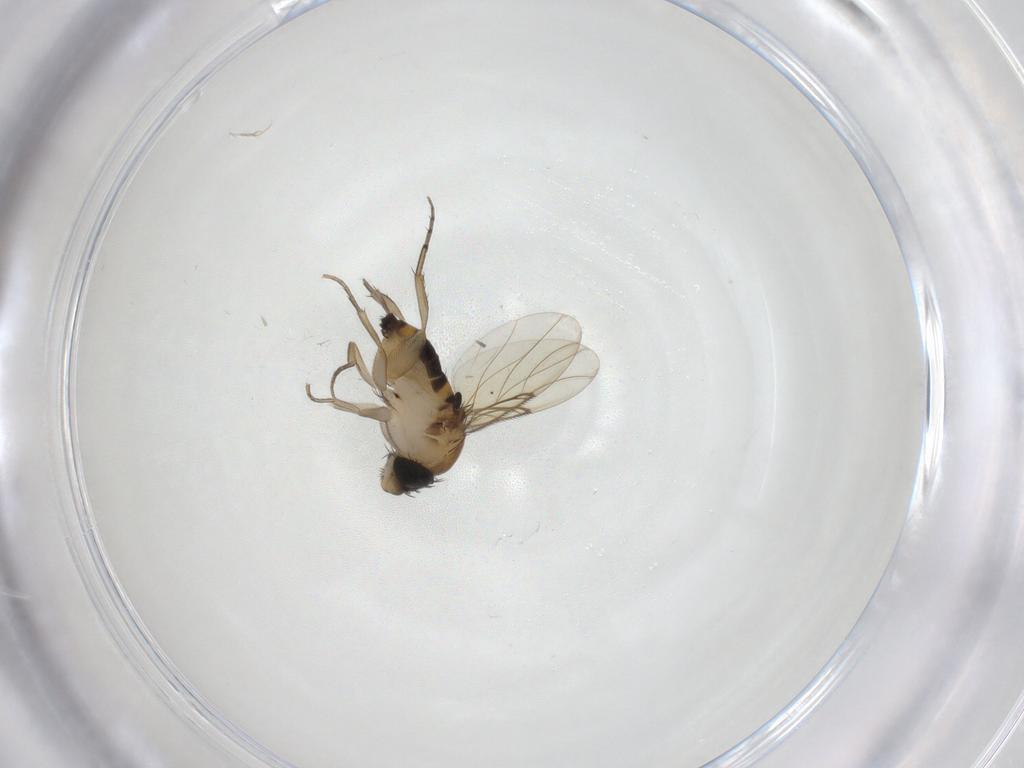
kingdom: Animalia
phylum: Arthropoda
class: Insecta
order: Diptera
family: Phoridae
